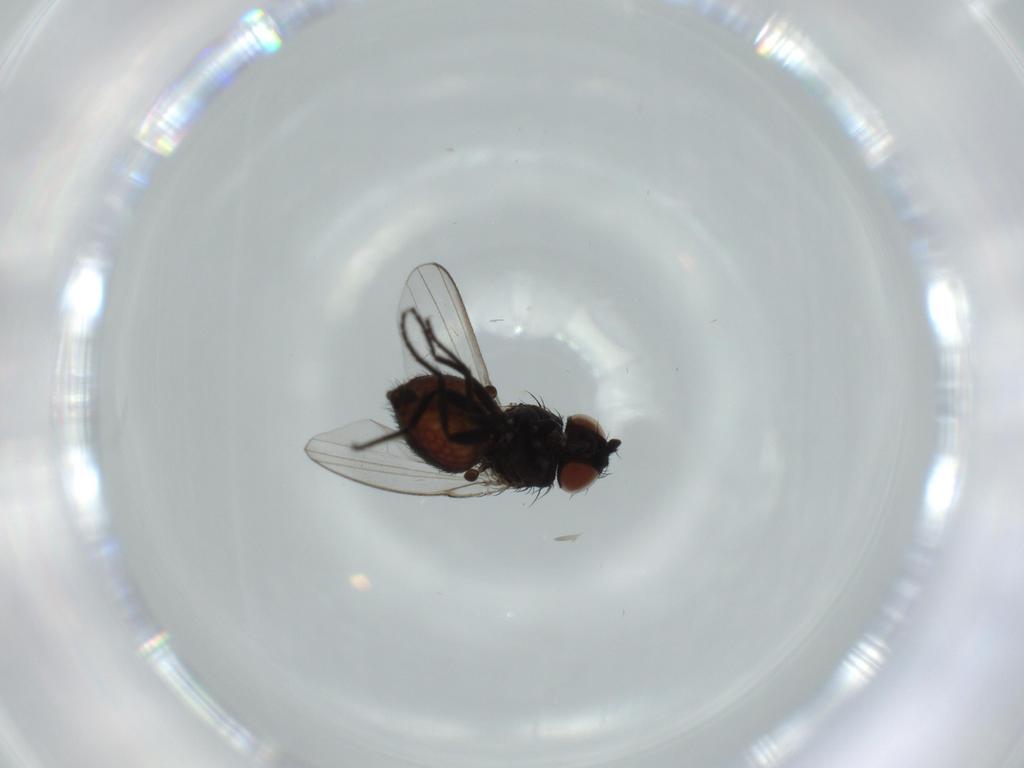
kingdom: Animalia
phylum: Arthropoda
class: Insecta
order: Diptera
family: Milichiidae
